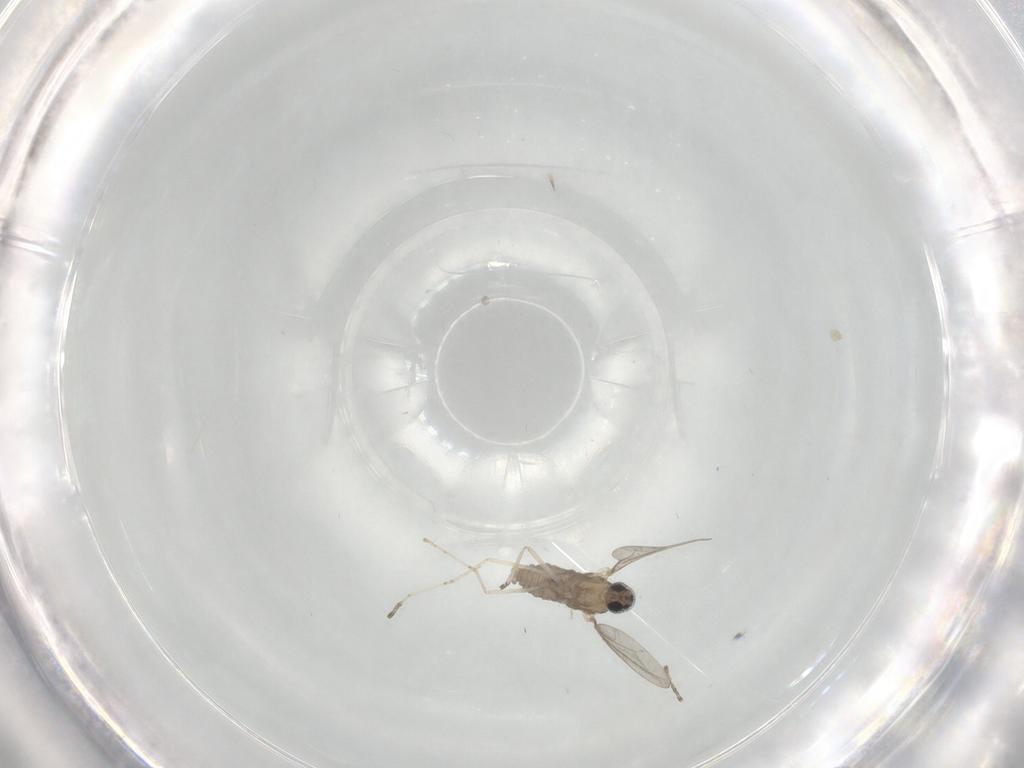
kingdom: Animalia
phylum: Arthropoda
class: Insecta
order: Diptera
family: Cecidomyiidae
